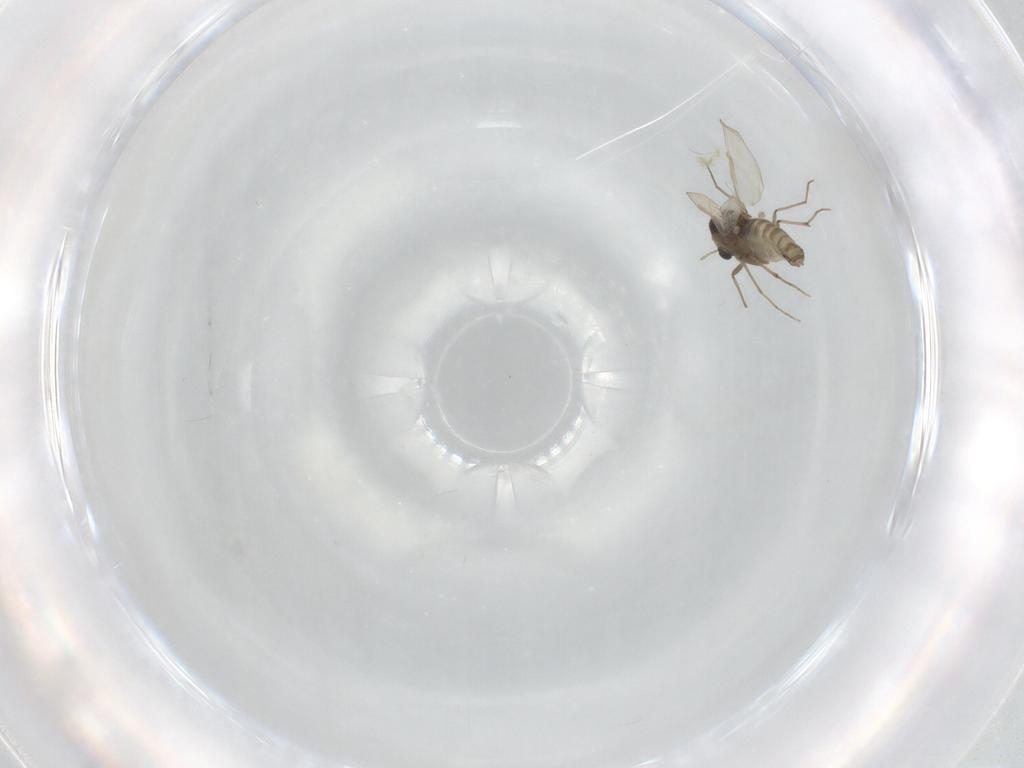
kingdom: Animalia
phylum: Arthropoda
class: Insecta
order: Diptera
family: Chironomidae
